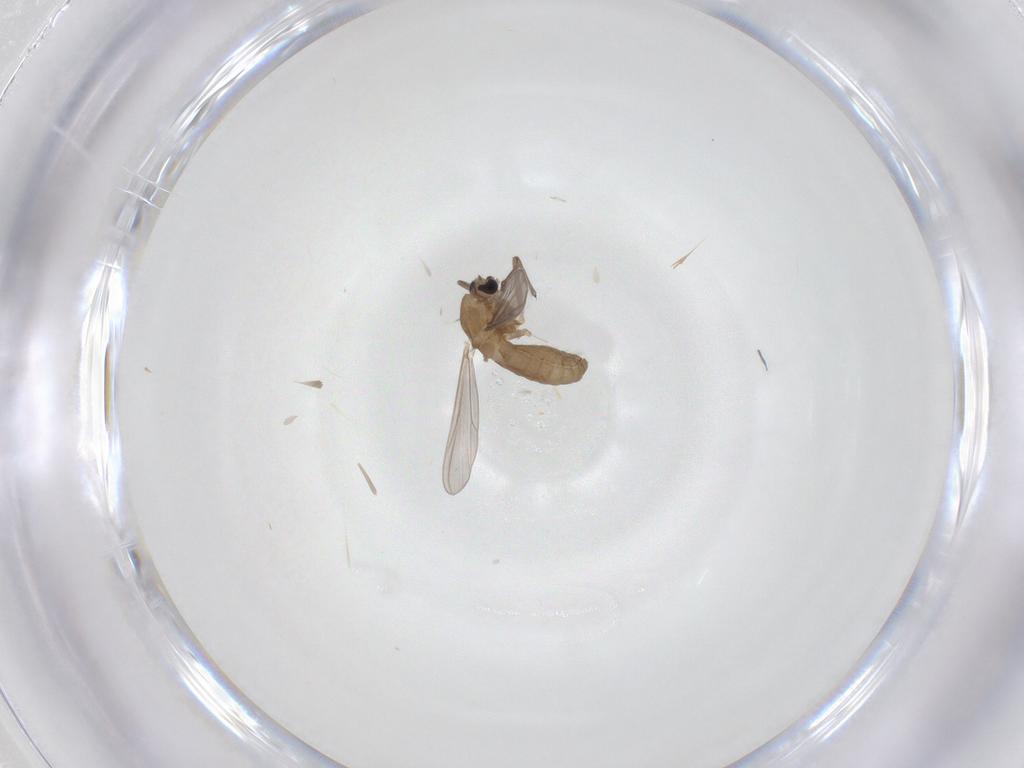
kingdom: Animalia
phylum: Arthropoda
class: Insecta
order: Diptera
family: Chironomidae
